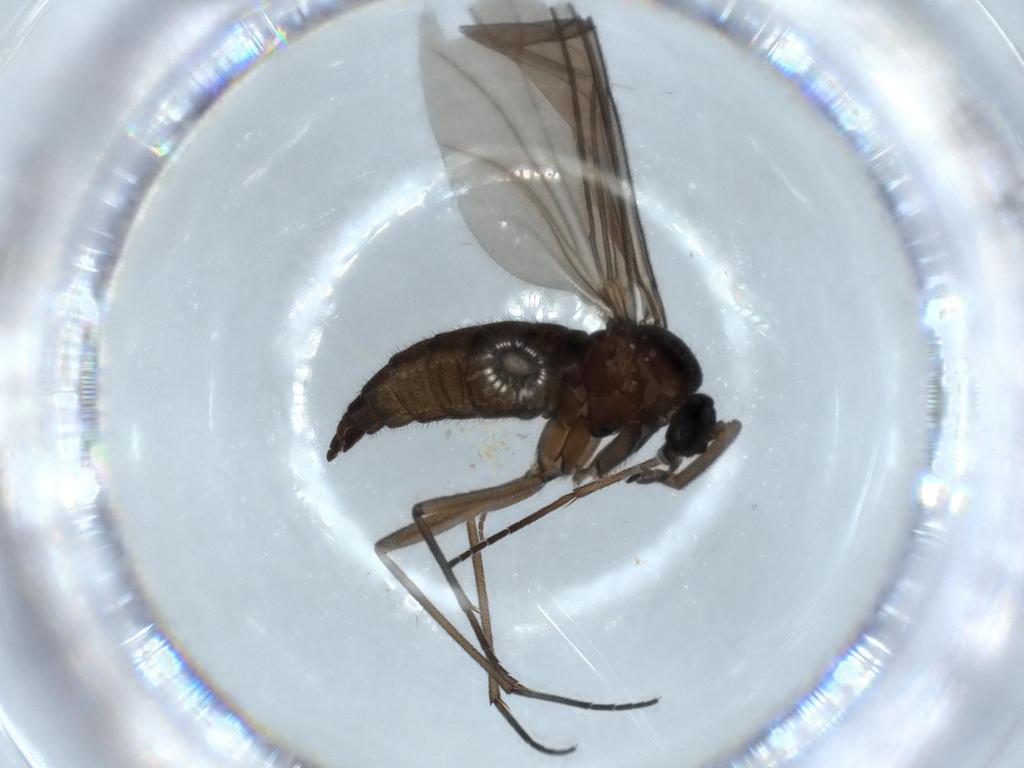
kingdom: Animalia
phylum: Arthropoda
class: Insecta
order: Diptera
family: Sciaridae
